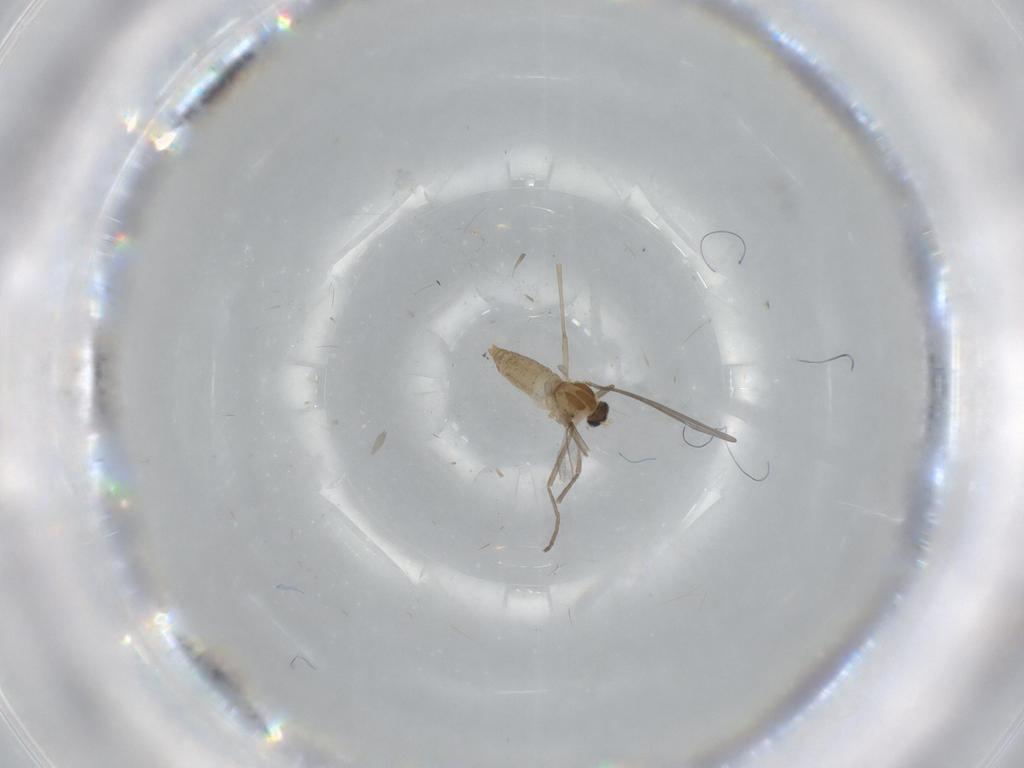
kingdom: Animalia
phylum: Arthropoda
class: Insecta
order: Diptera
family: Cecidomyiidae
